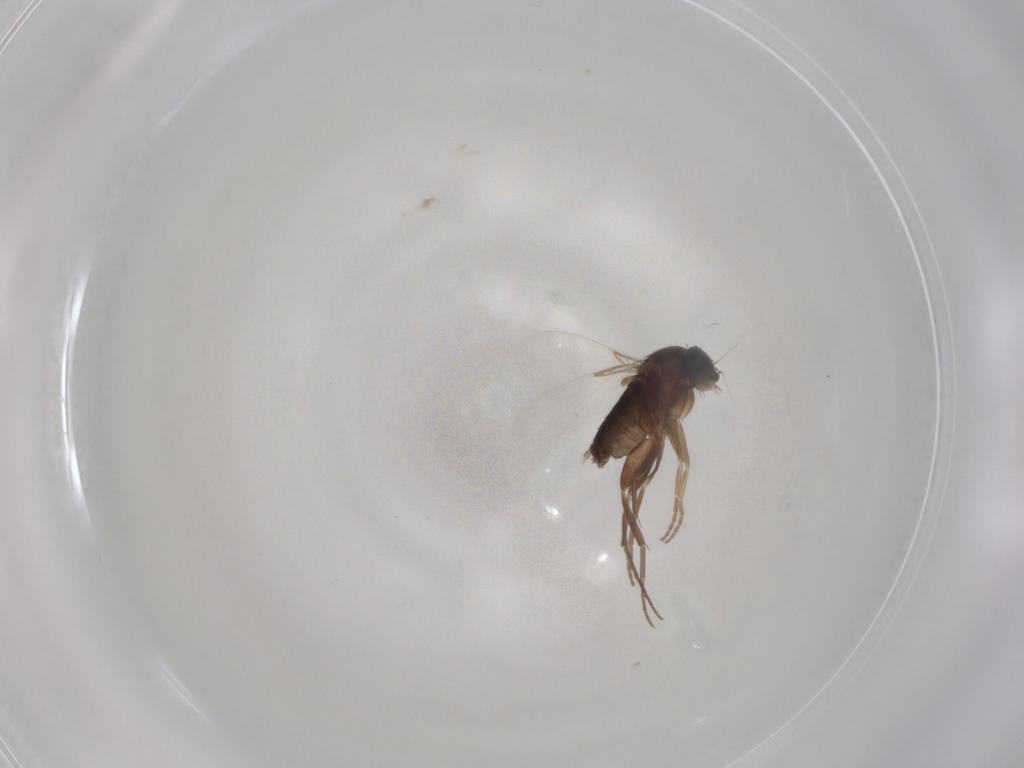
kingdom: Animalia
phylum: Arthropoda
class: Insecta
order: Diptera
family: Phoridae
